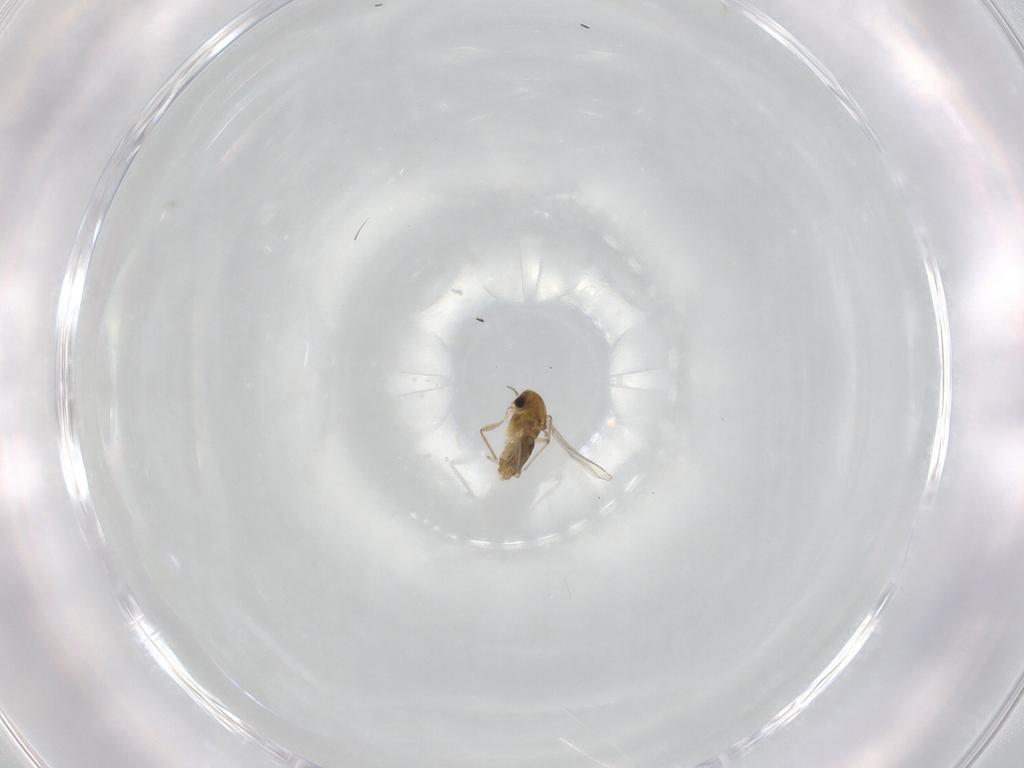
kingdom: Animalia
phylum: Arthropoda
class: Insecta
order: Diptera
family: Chironomidae
